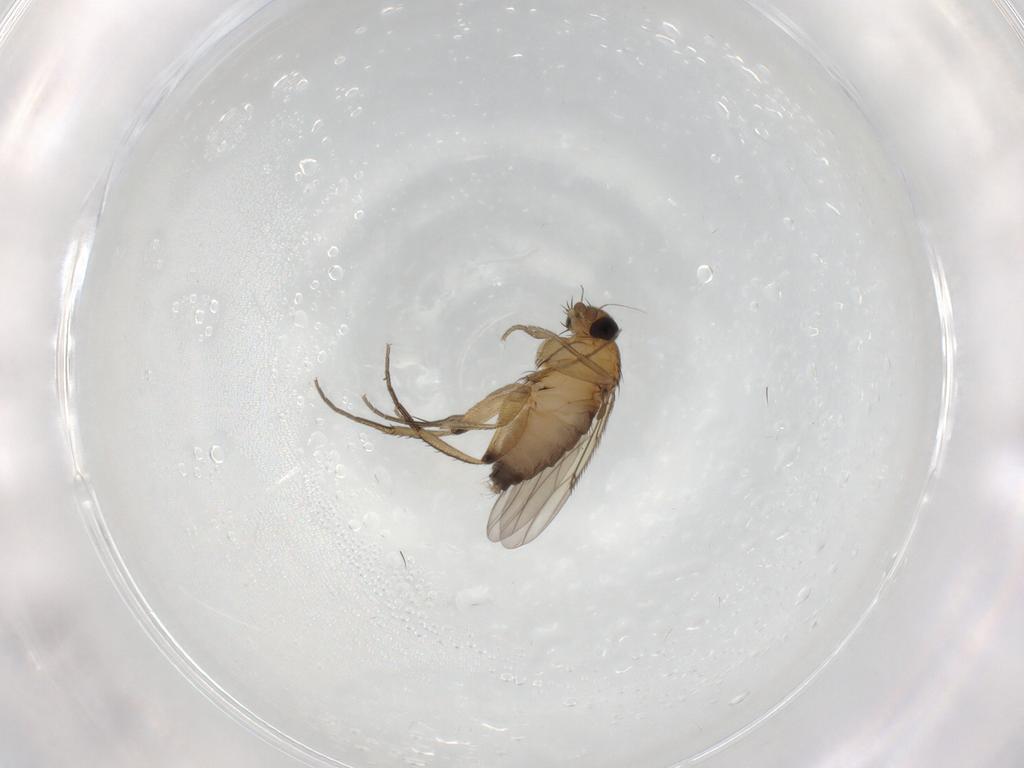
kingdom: Animalia
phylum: Arthropoda
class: Insecta
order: Diptera
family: Phoridae
